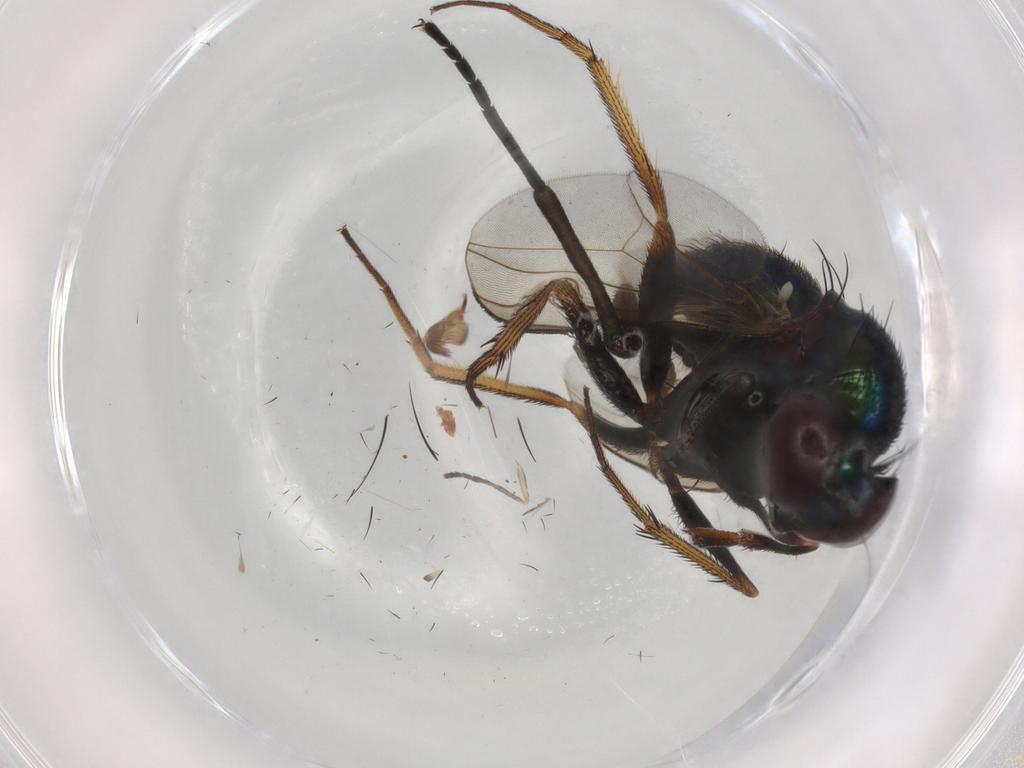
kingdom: Animalia
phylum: Arthropoda
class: Insecta
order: Diptera
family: Dolichopodidae
